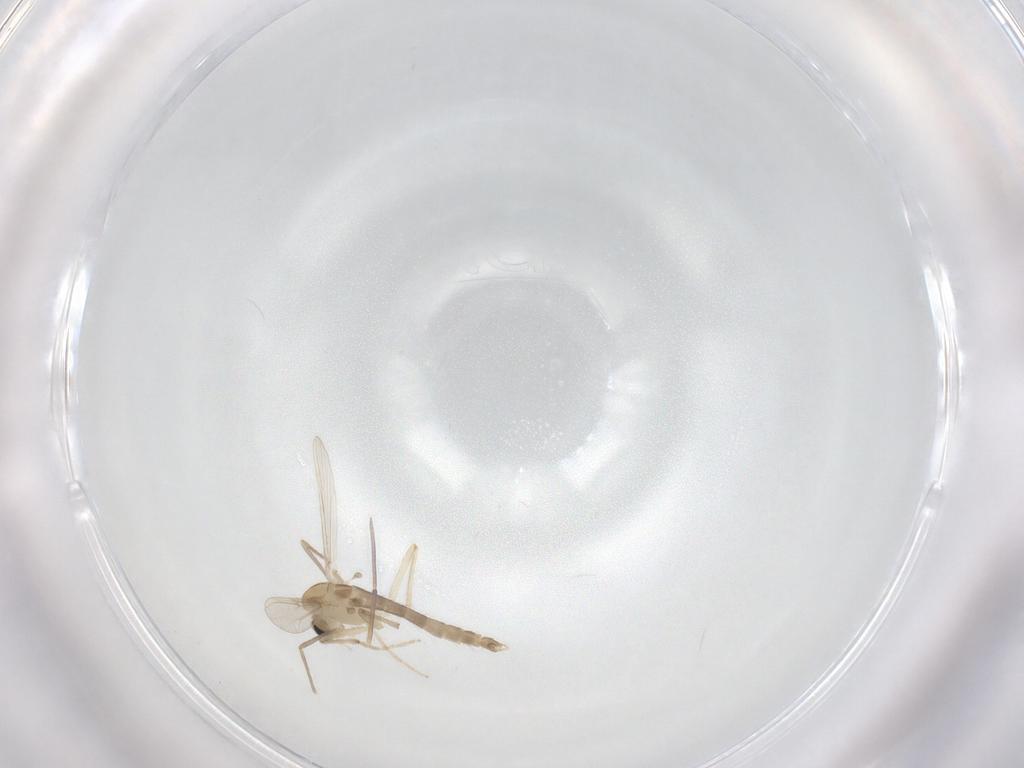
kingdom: Animalia
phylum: Arthropoda
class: Insecta
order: Diptera
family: Chironomidae
